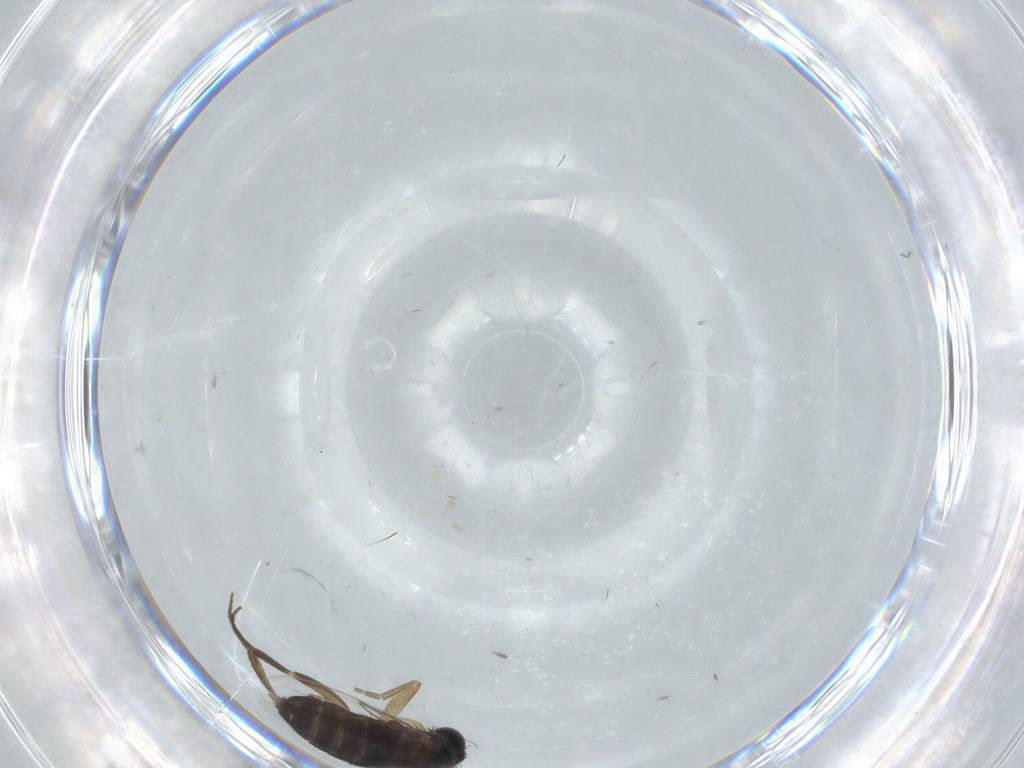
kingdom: Animalia
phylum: Arthropoda
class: Insecta
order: Diptera
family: Phoridae
